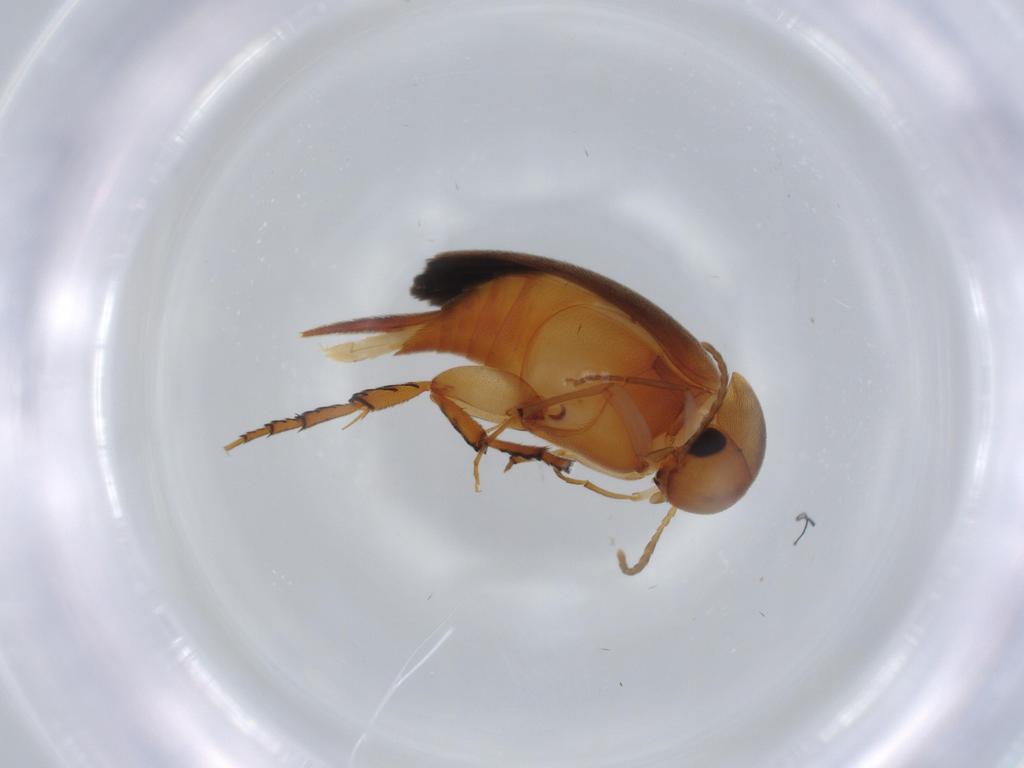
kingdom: Animalia
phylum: Arthropoda
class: Insecta
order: Coleoptera
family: Mordellidae
